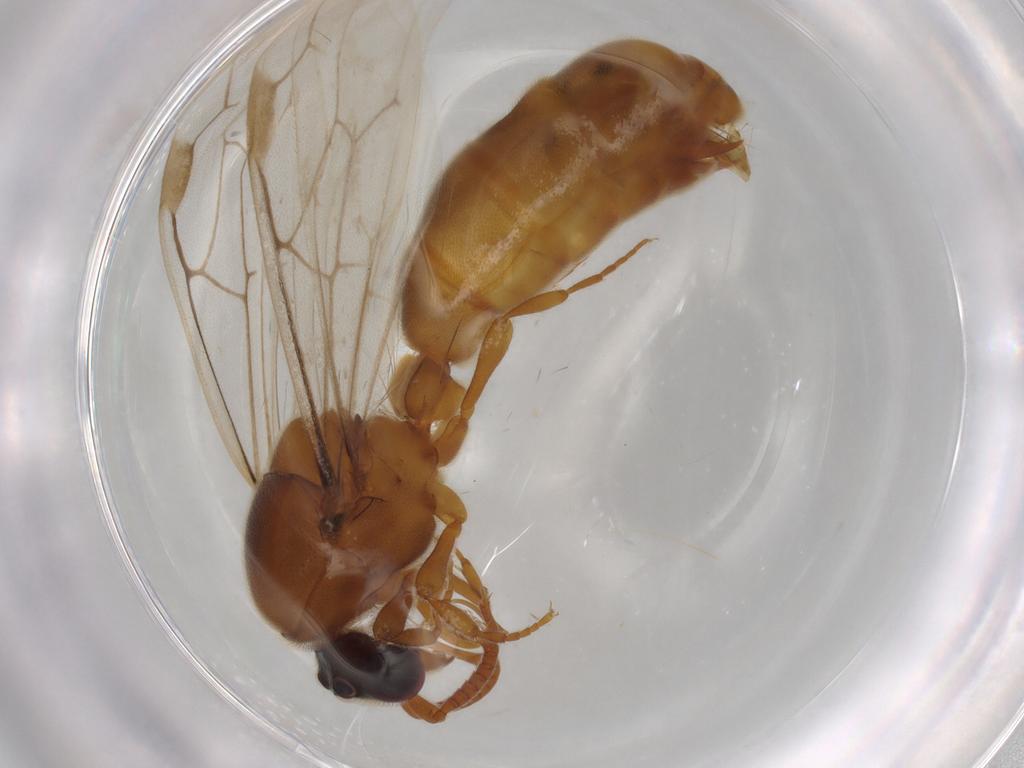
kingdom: Animalia
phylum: Arthropoda
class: Insecta
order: Hymenoptera
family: Formicidae
